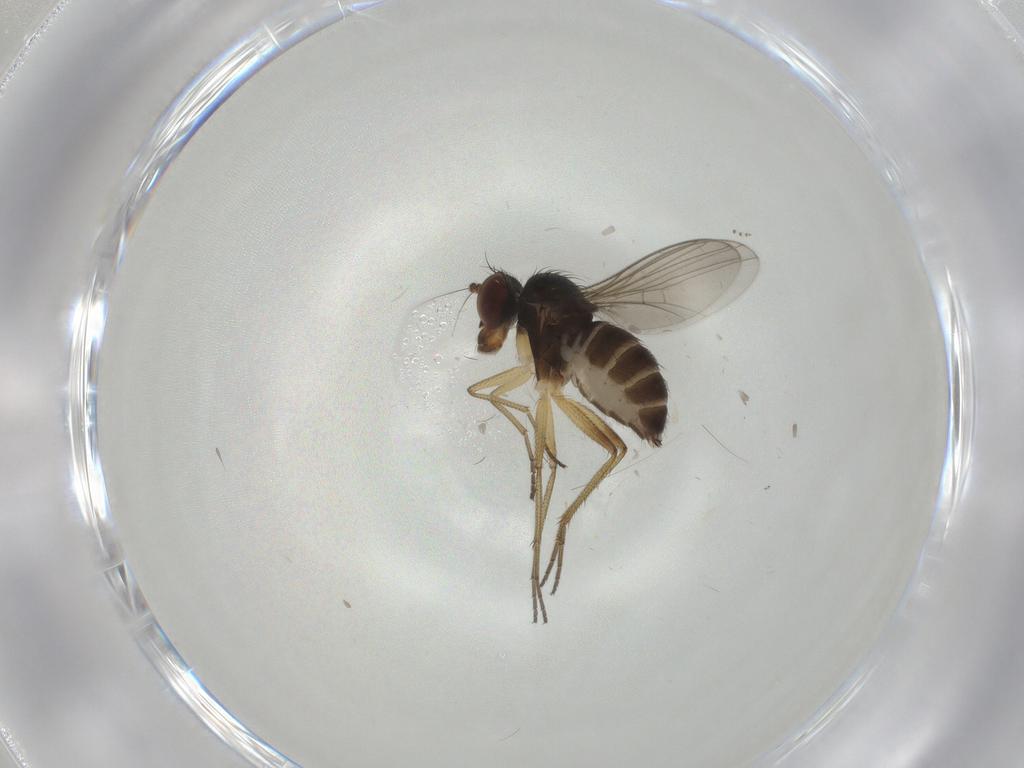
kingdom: Animalia
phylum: Arthropoda
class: Insecta
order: Diptera
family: Dolichopodidae
